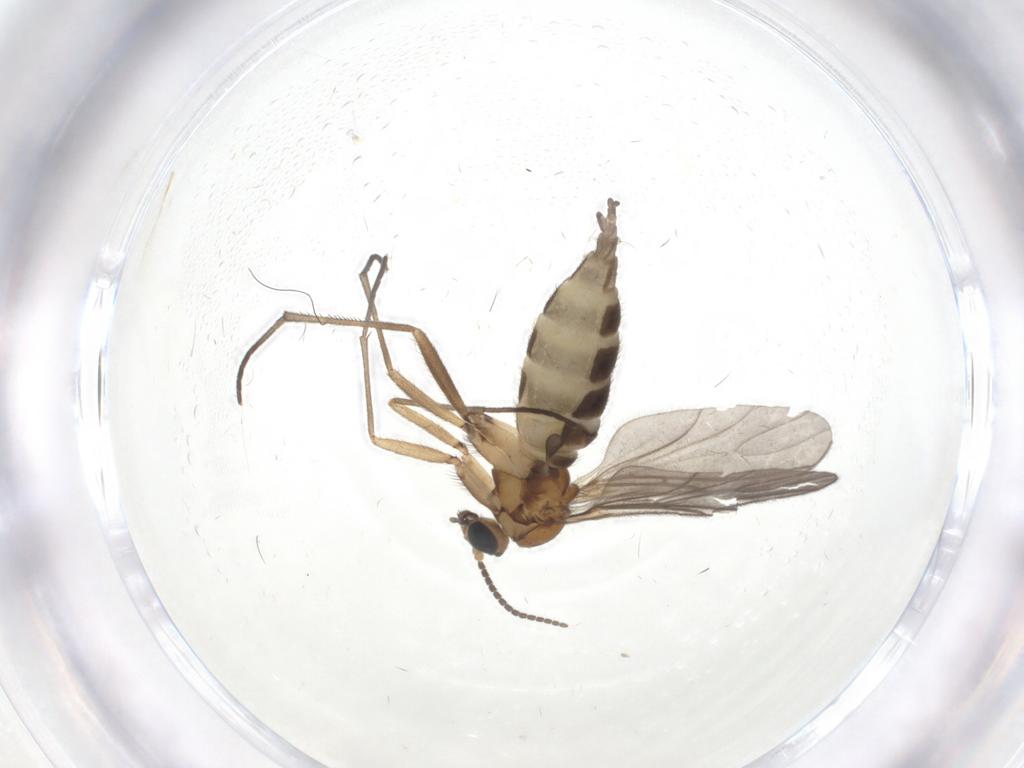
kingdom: Animalia
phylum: Arthropoda
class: Insecta
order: Diptera
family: Sciaridae
